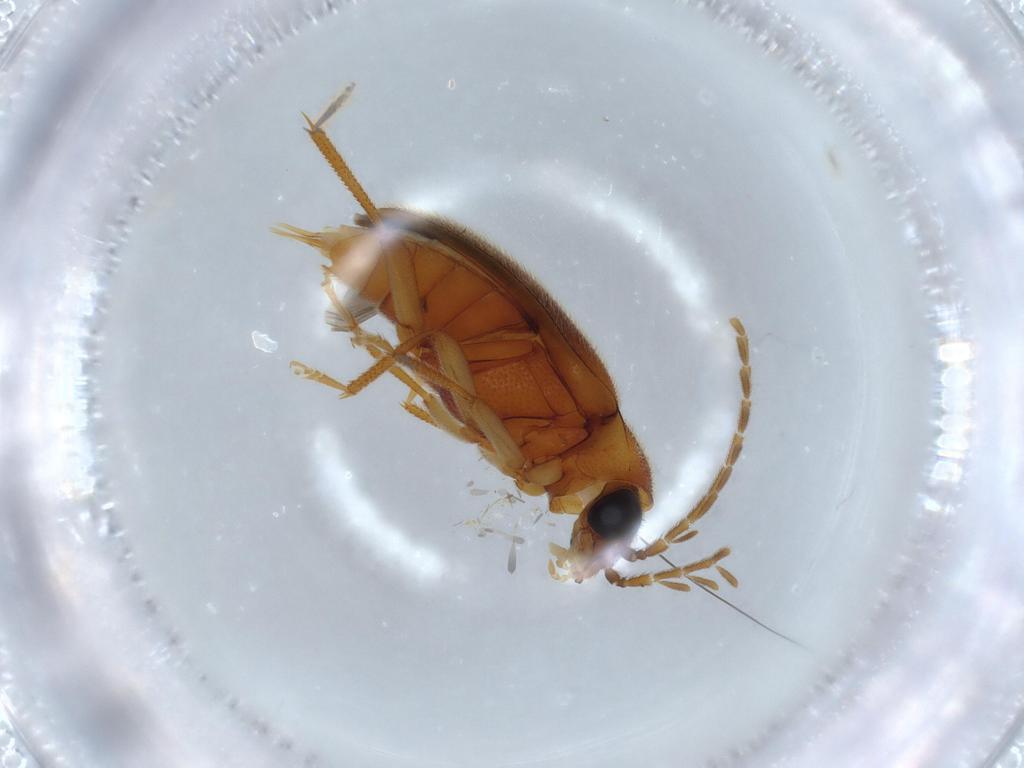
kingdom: Animalia
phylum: Arthropoda
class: Insecta
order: Coleoptera
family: Ptilodactylidae
